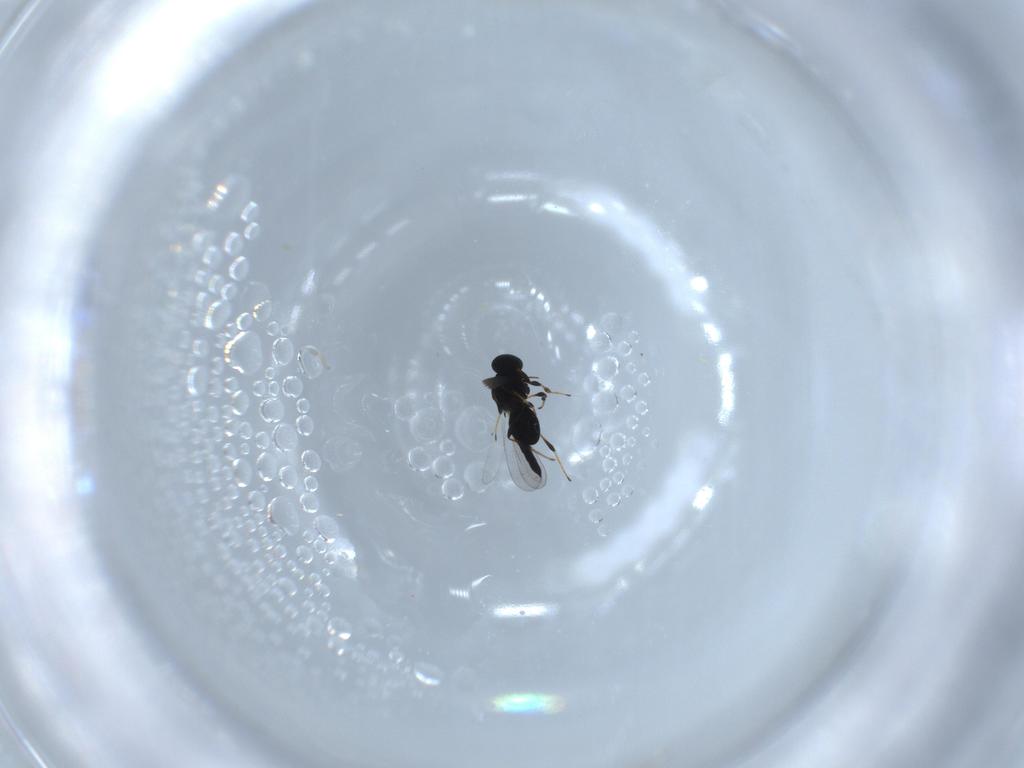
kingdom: Animalia
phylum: Arthropoda
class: Insecta
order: Hymenoptera
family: Platygastridae
